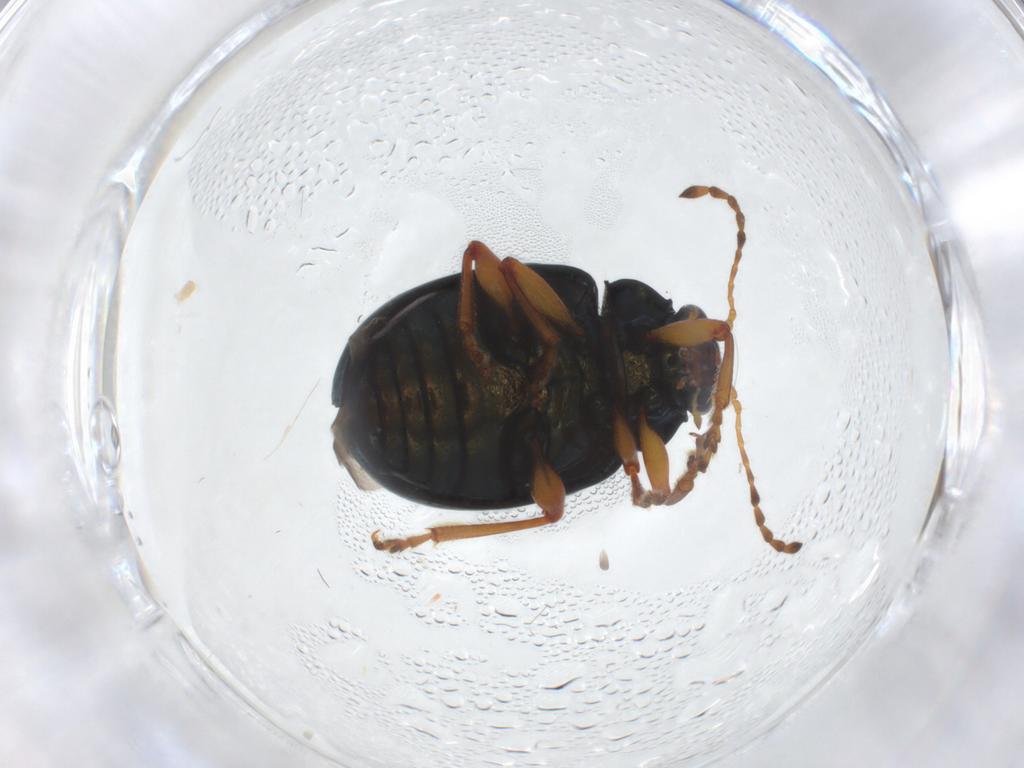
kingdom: Animalia
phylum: Arthropoda
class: Insecta
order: Coleoptera
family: Chrysomelidae
